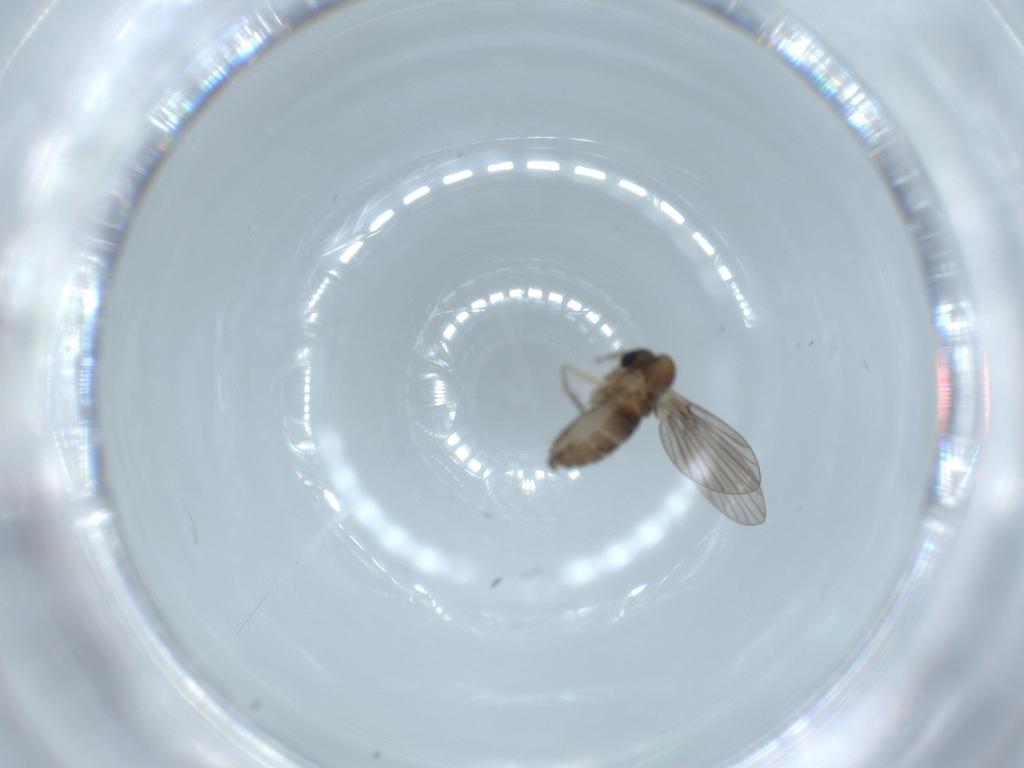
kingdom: Animalia
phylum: Arthropoda
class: Insecta
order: Diptera
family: Psychodidae
